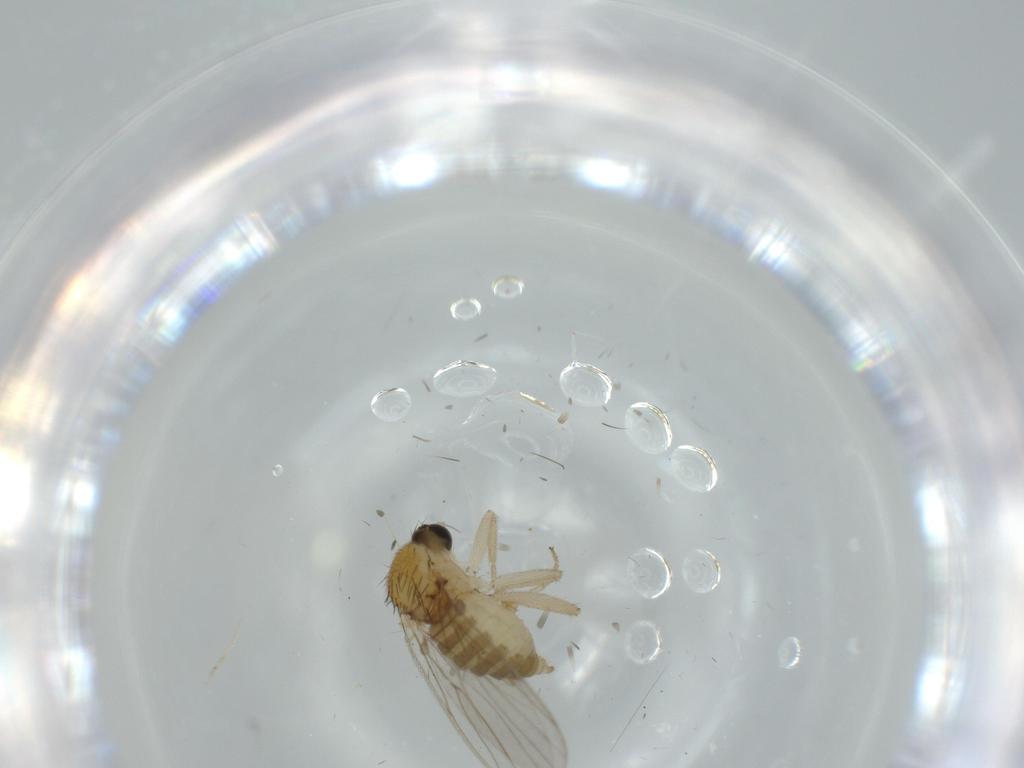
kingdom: Animalia
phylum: Arthropoda
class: Insecta
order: Diptera
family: Hybotidae
